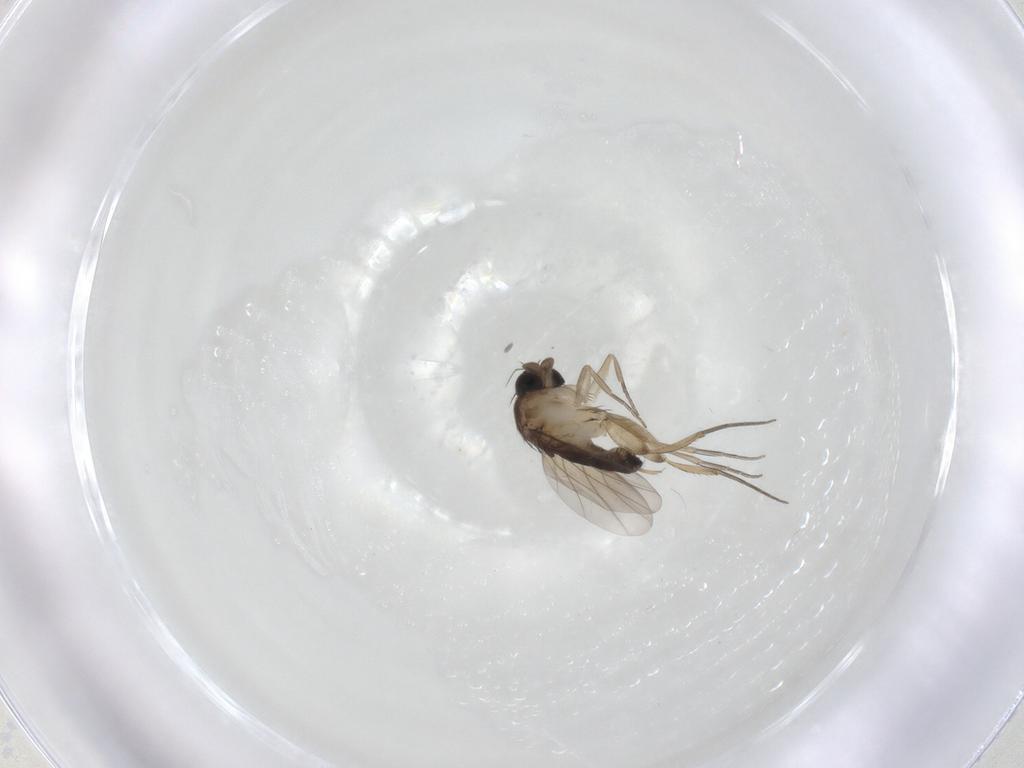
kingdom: Animalia
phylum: Arthropoda
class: Insecta
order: Diptera
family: Phoridae
